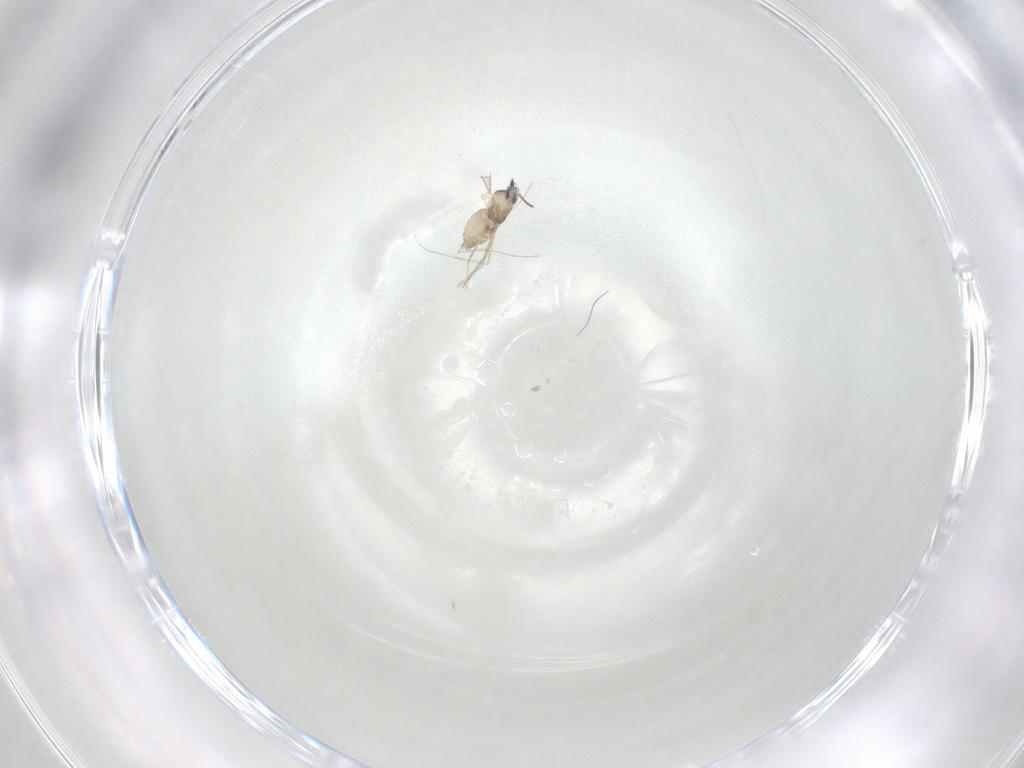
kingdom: Animalia
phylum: Arthropoda
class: Insecta
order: Diptera
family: Cecidomyiidae
